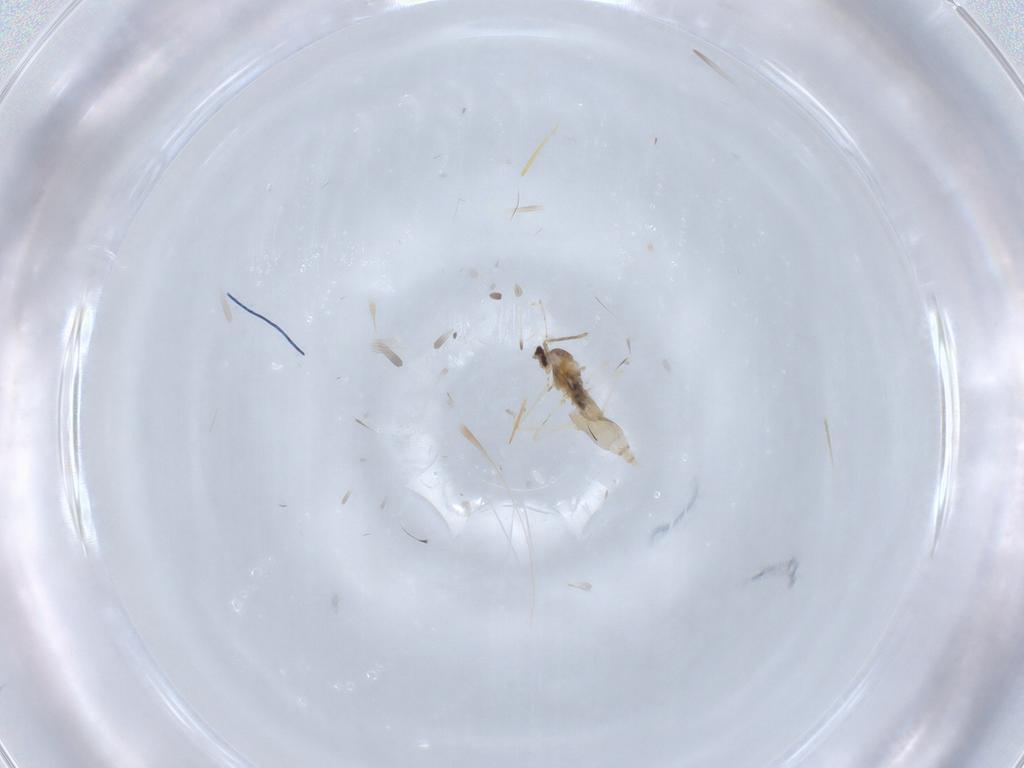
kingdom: Animalia
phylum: Arthropoda
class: Insecta
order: Diptera
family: Cecidomyiidae
